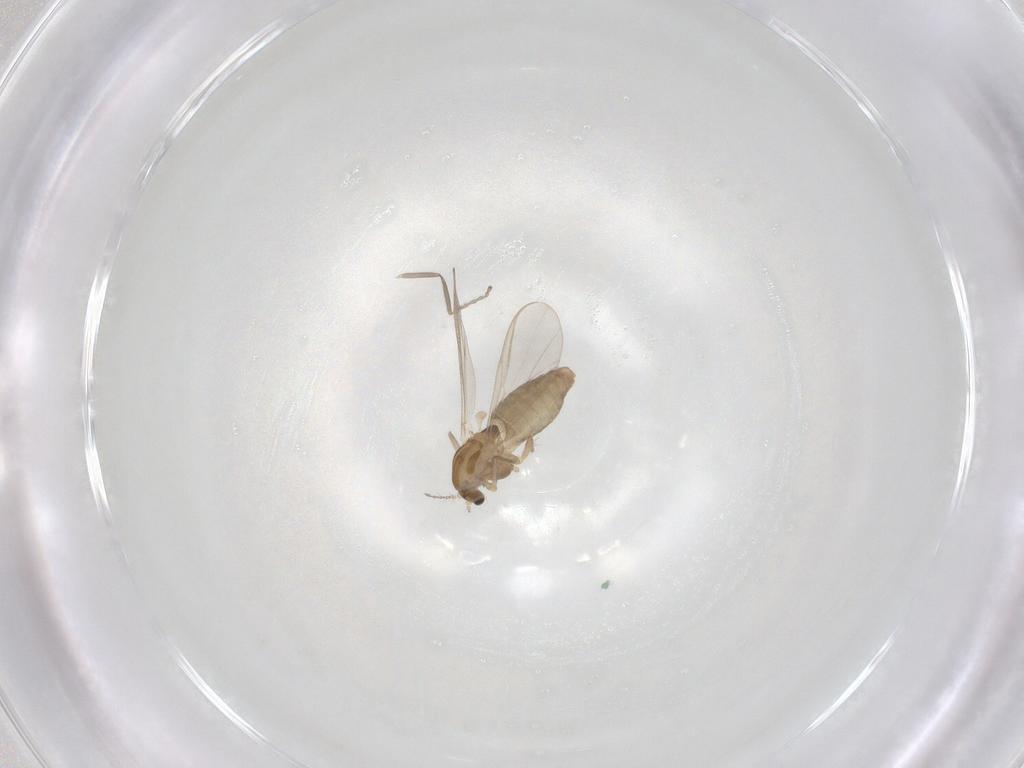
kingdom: Animalia
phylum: Arthropoda
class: Insecta
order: Diptera
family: Chironomidae
